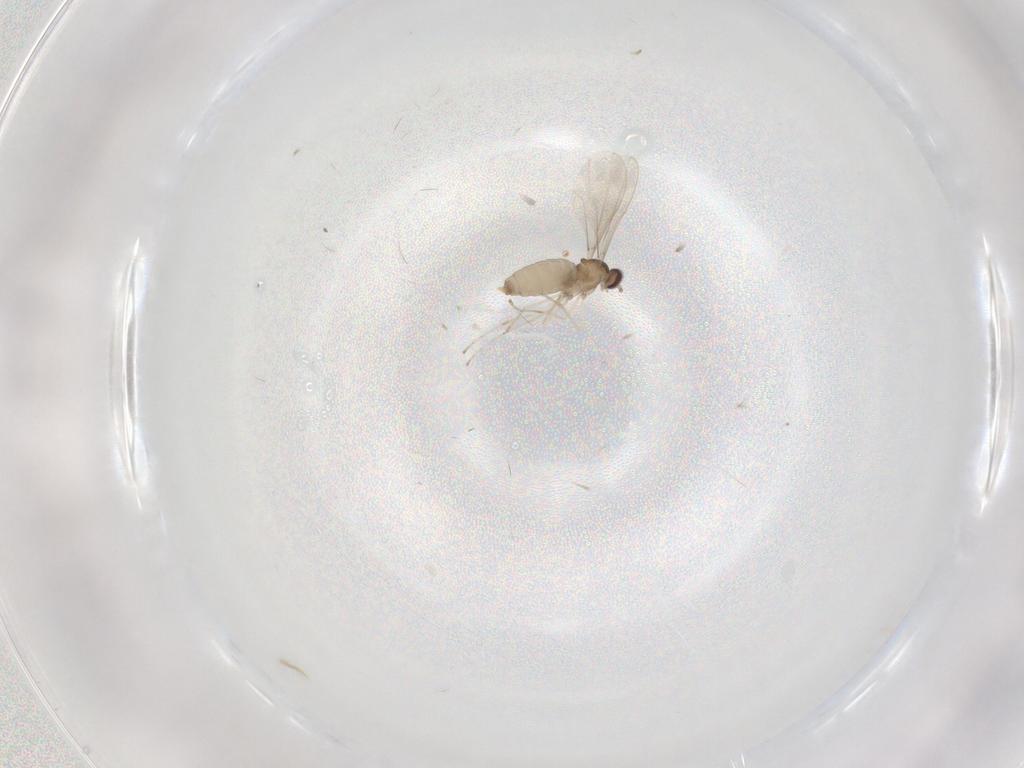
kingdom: Animalia
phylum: Arthropoda
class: Insecta
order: Diptera
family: Cecidomyiidae
